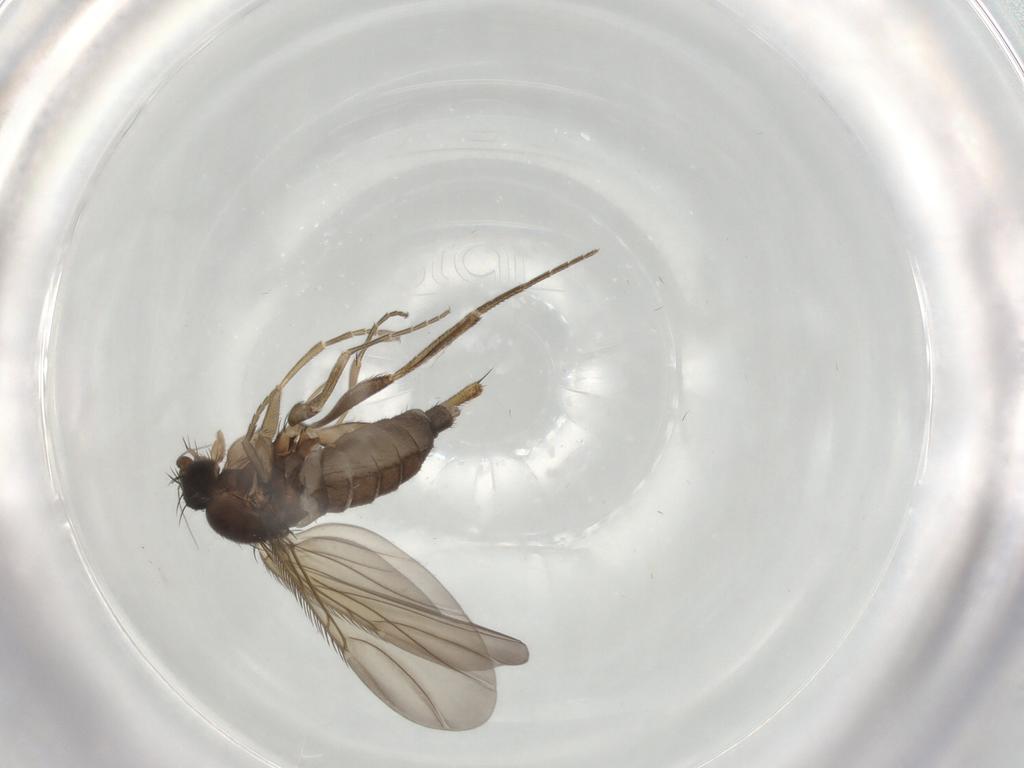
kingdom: Animalia
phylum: Arthropoda
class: Insecta
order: Diptera
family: Phoridae
